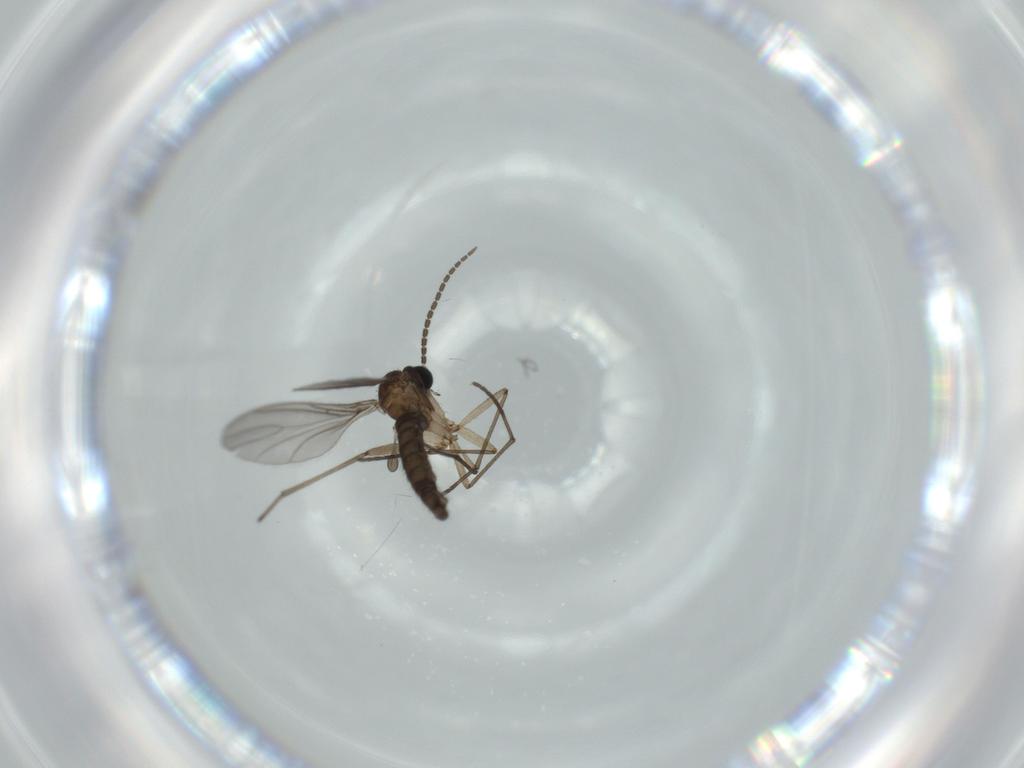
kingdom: Animalia
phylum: Arthropoda
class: Insecta
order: Diptera
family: Sciaridae
